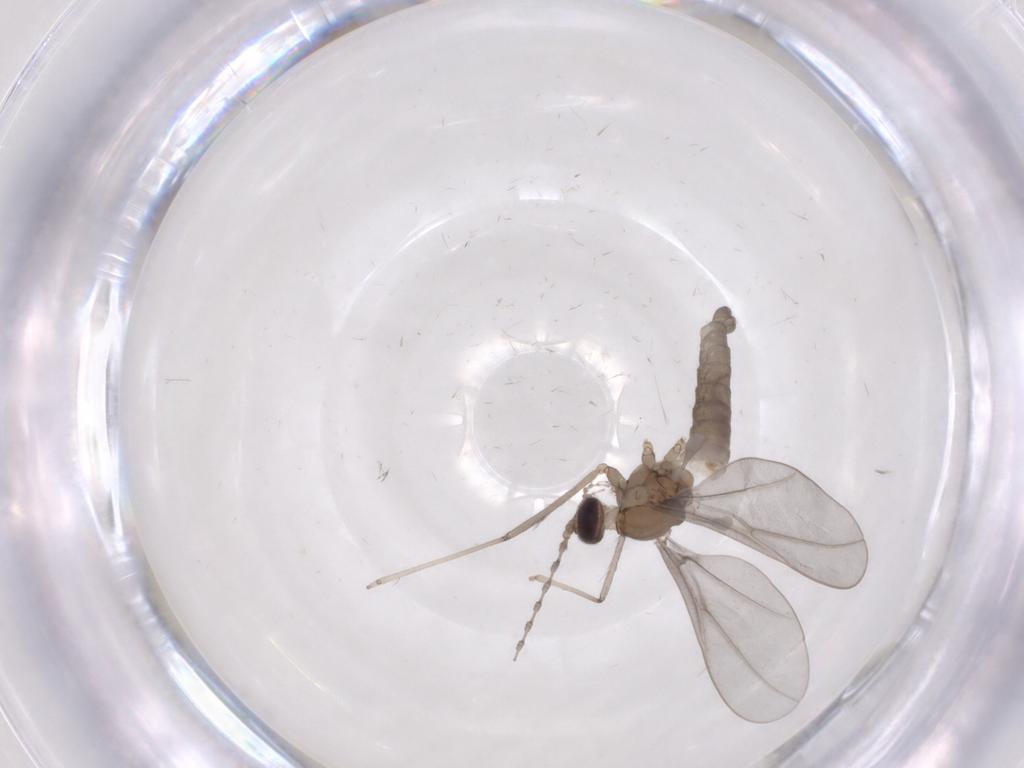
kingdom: Animalia
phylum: Arthropoda
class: Insecta
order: Diptera
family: Cecidomyiidae
